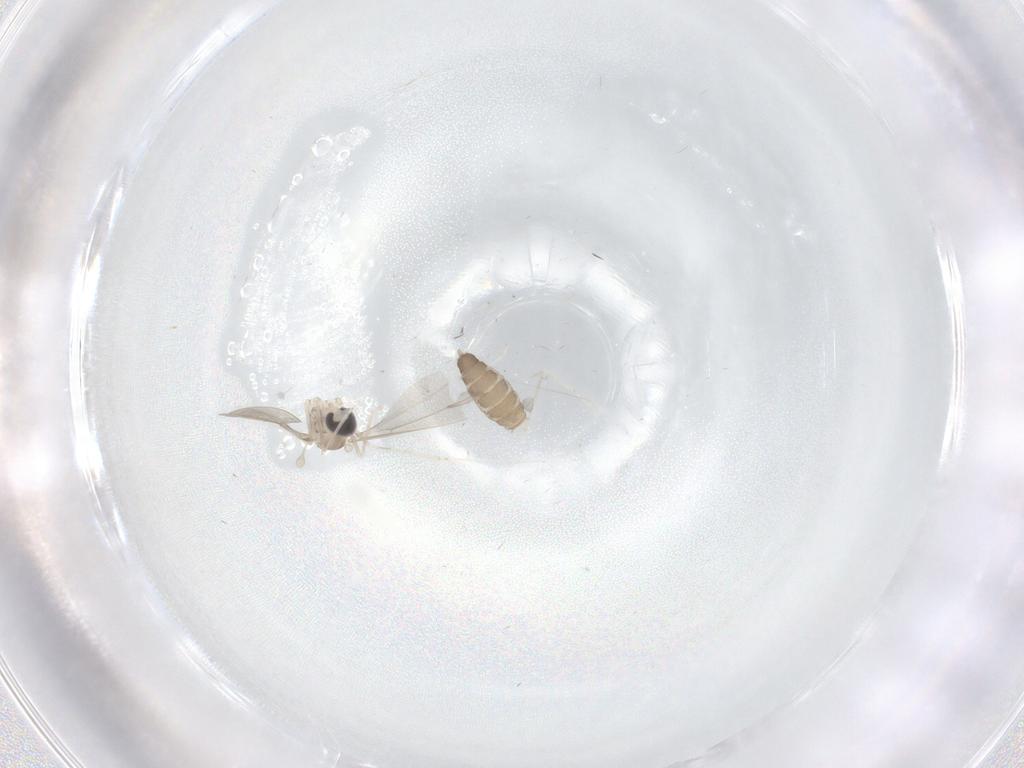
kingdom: Animalia
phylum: Arthropoda
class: Insecta
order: Diptera
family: Cecidomyiidae
